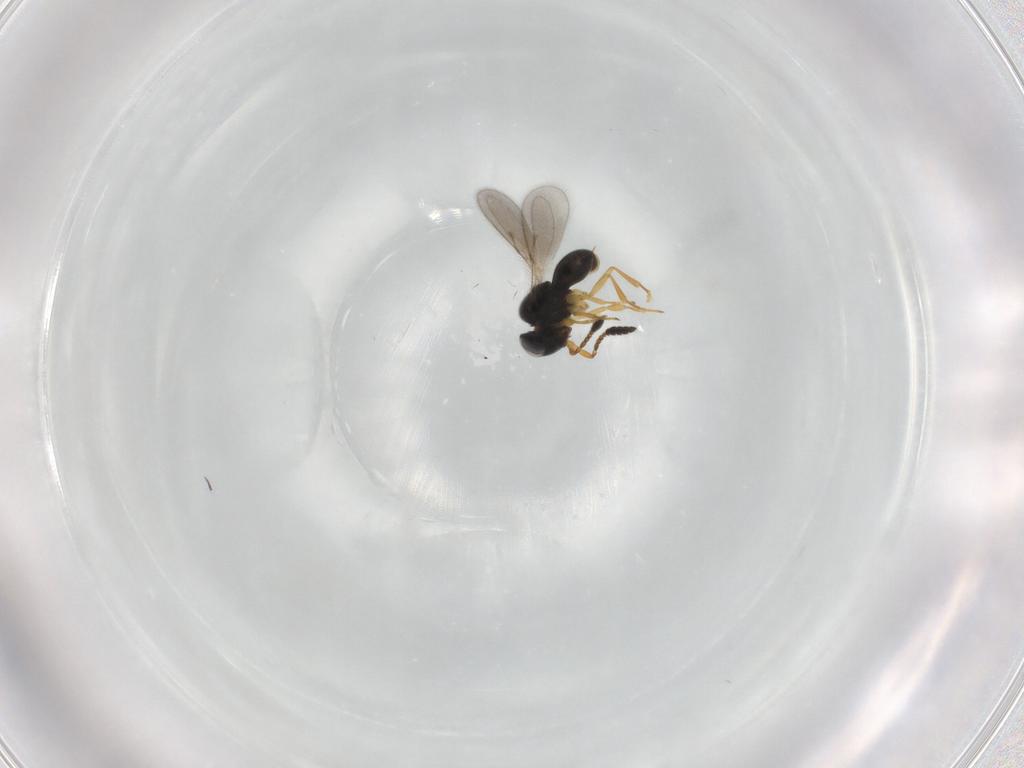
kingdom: Animalia
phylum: Arthropoda
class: Insecta
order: Hymenoptera
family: Scelionidae
